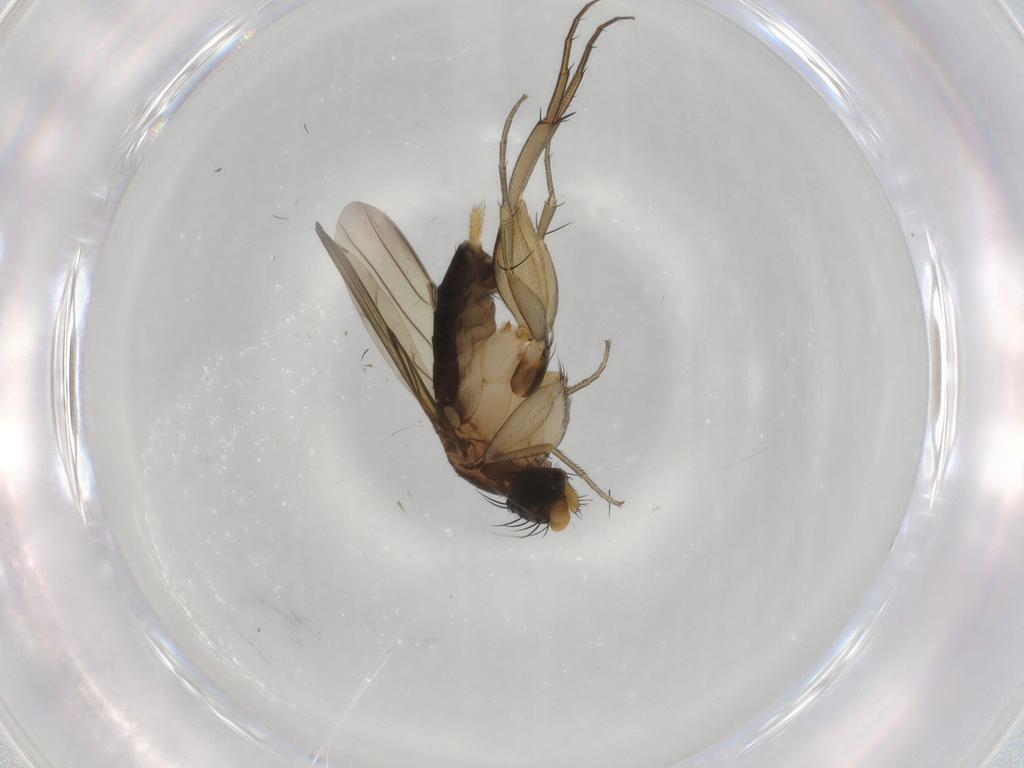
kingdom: Animalia
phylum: Arthropoda
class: Insecta
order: Diptera
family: Phoridae
